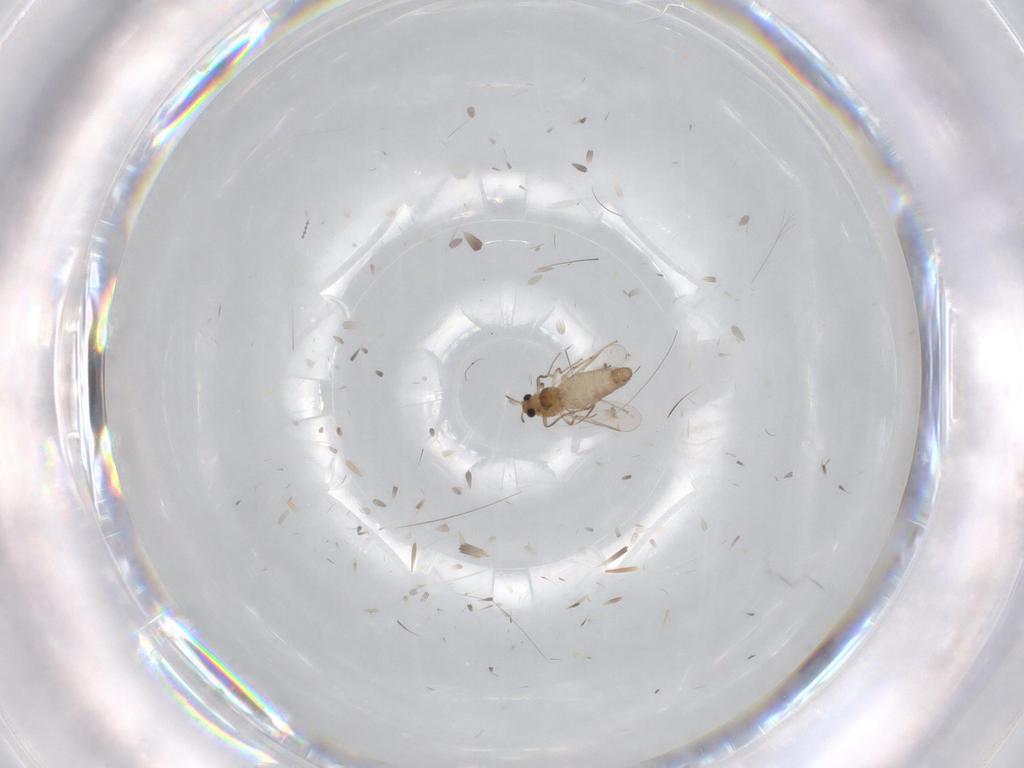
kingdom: Animalia
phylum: Arthropoda
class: Insecta
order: Diptera
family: Chironomidae
